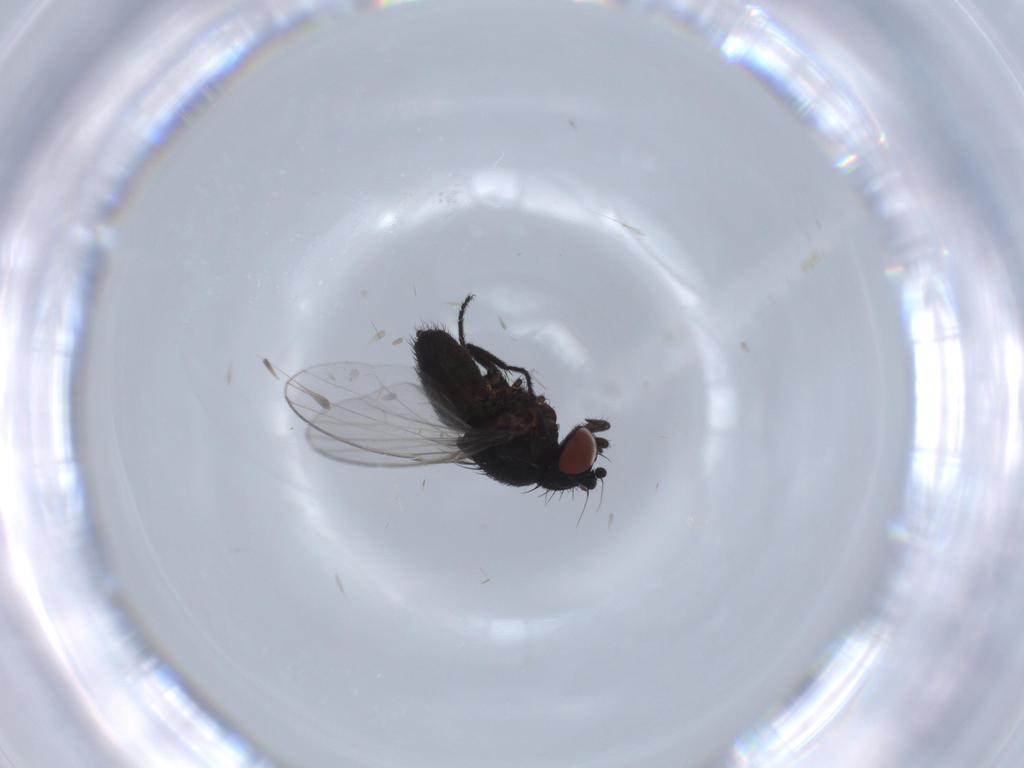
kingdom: Animalia
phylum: Arthropoda
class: Insecta
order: Diptera
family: Milichiidae
